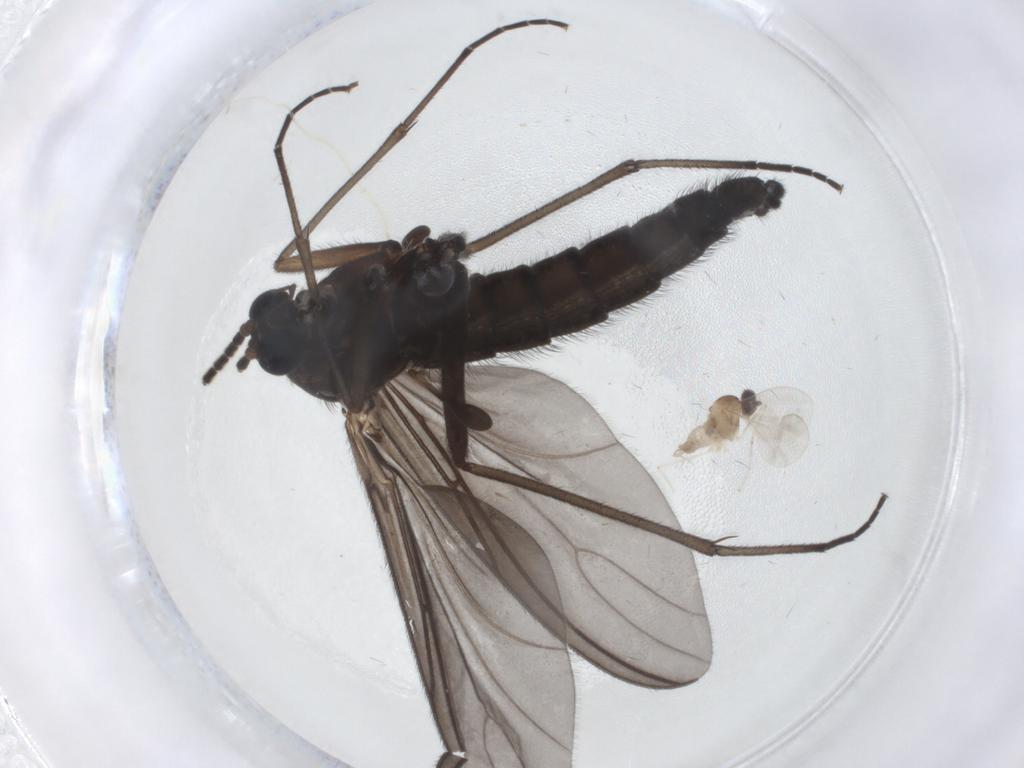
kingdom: Animalia
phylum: Arthropoda
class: Insecta
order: Diptera
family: Cecidomyiidae
